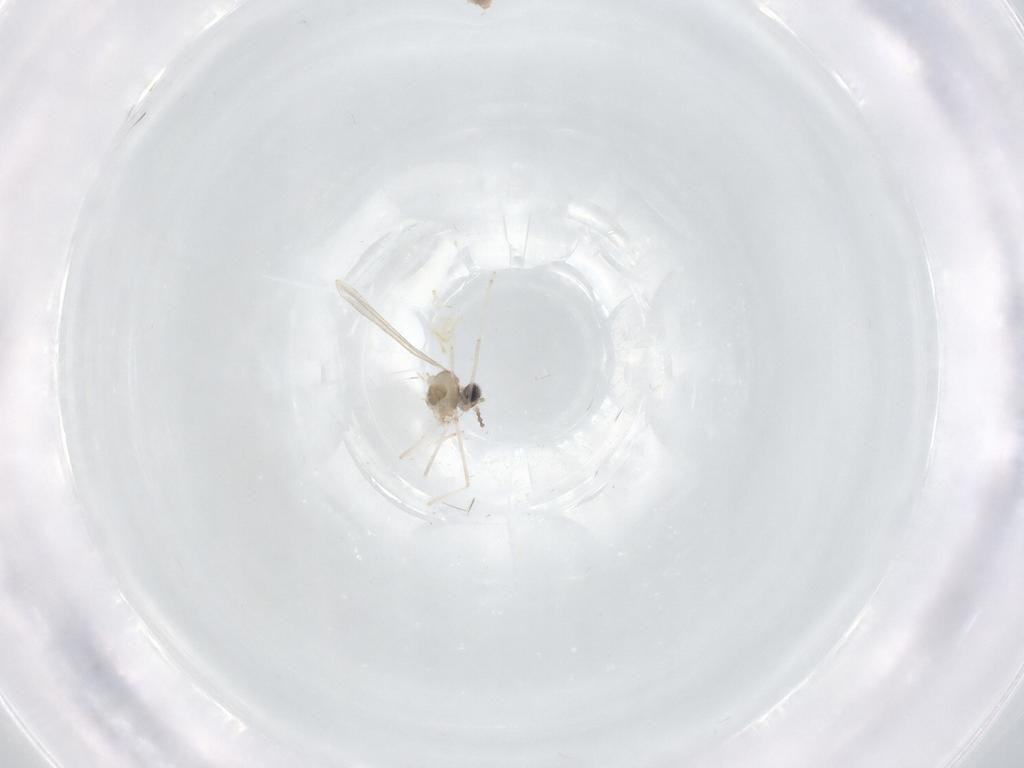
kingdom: Animalia
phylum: Arthropoda
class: Insecta
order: Diptera
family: Cecidomyiidae
